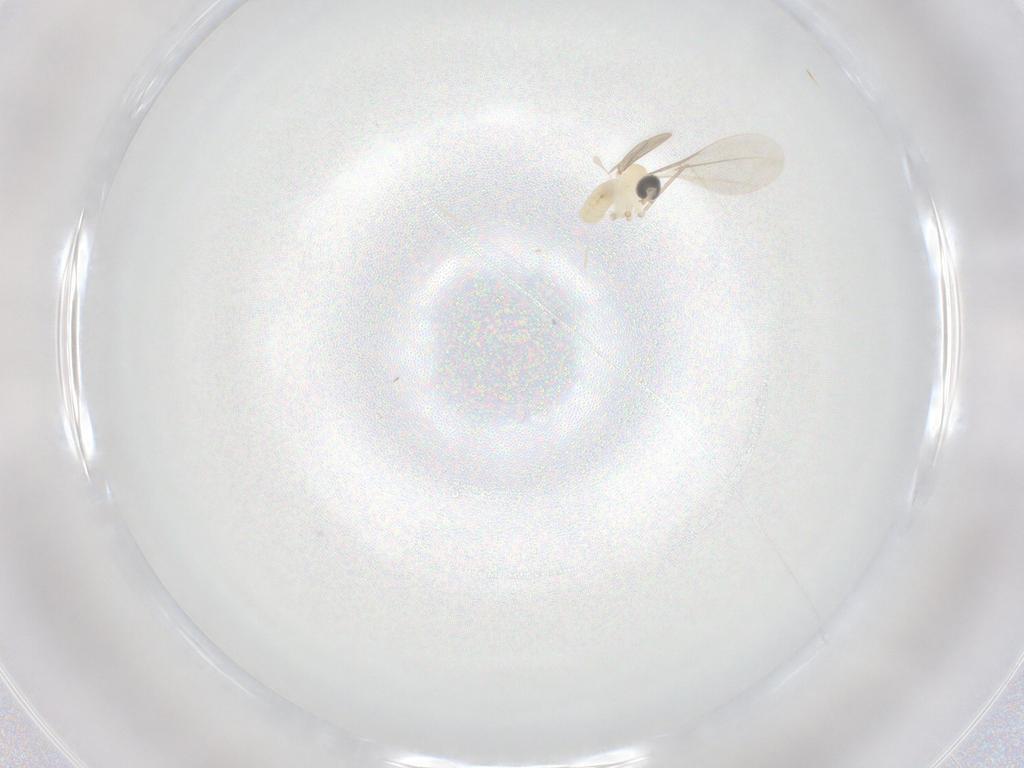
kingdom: Animalia
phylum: Arthropoda
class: Insecta
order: Diptera
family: Cecidomyiidae
